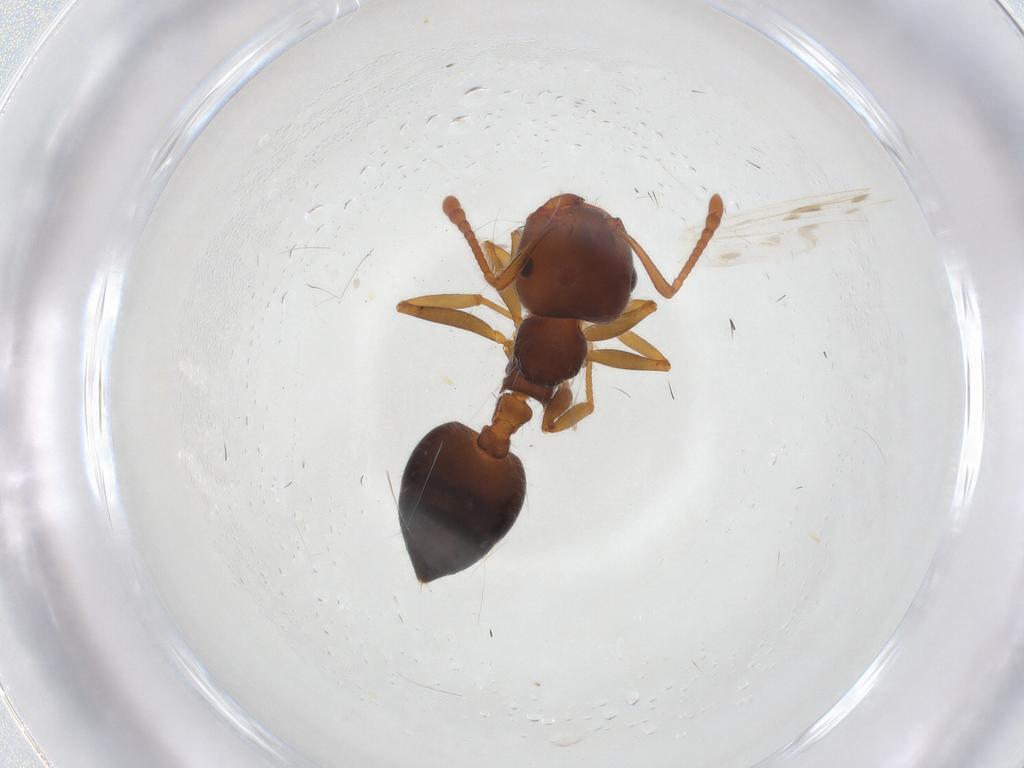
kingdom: Animalia
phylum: Arthropoda
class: Insecta
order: Hymenoptera
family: Formicidae
